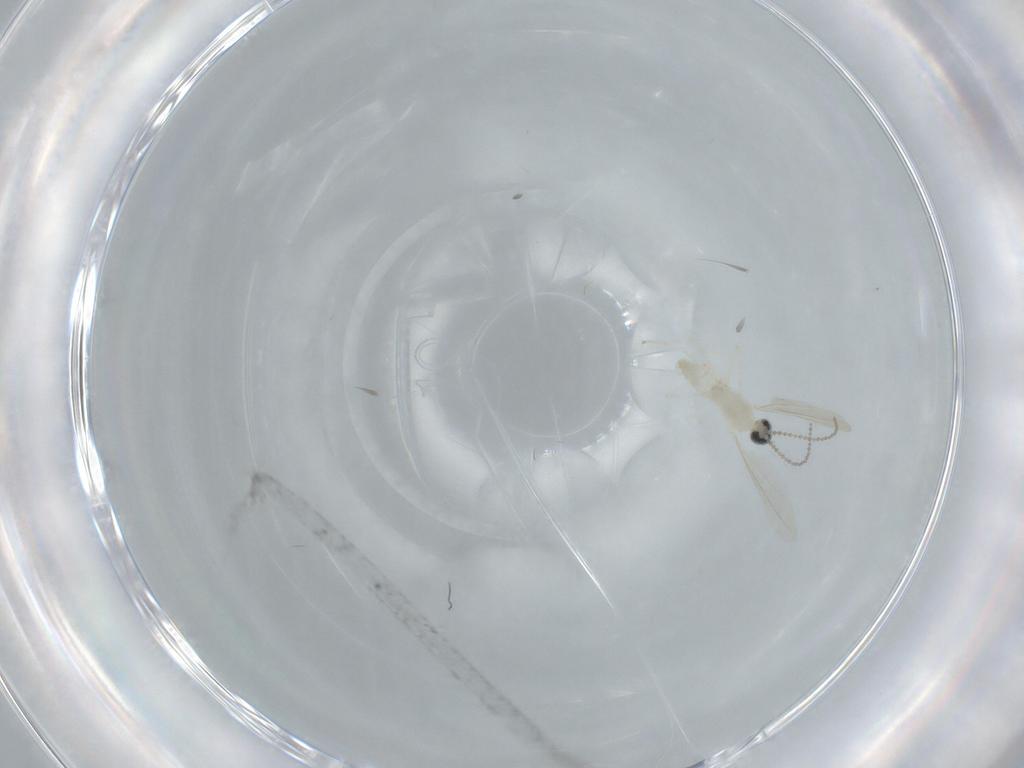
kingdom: Animalia
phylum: Arthropoda
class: Insecta
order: Diptera
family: Cecidomyiidae
